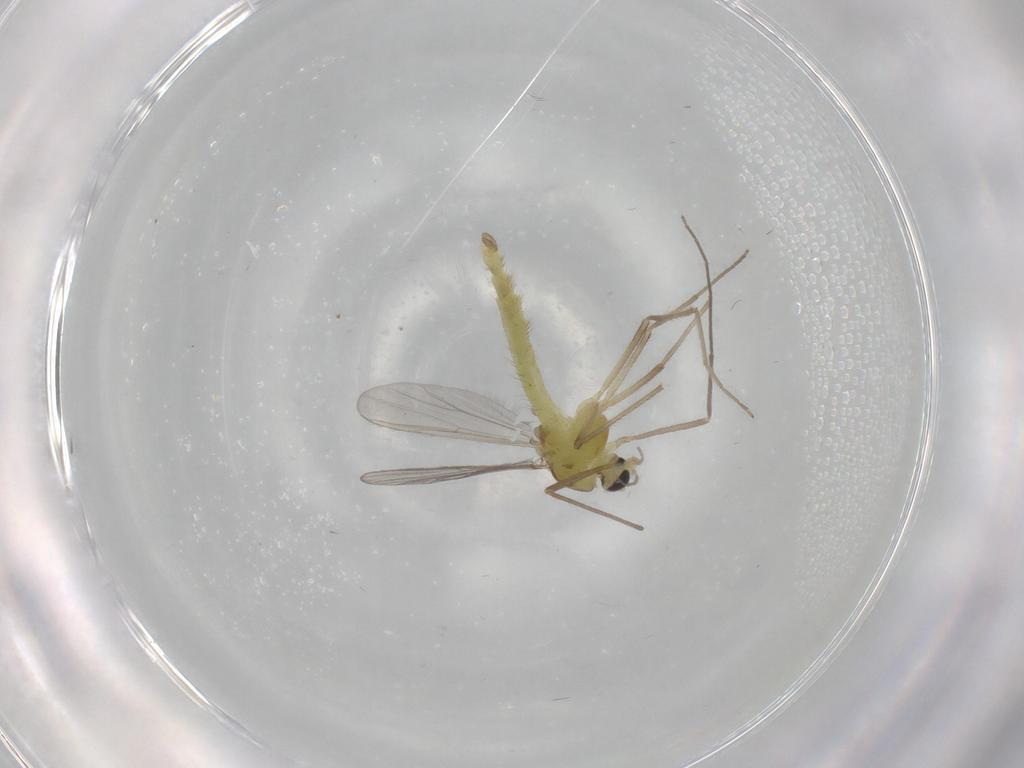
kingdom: Animalia
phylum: Arthropoda
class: Insecta
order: Diptera
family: Chironomidae
